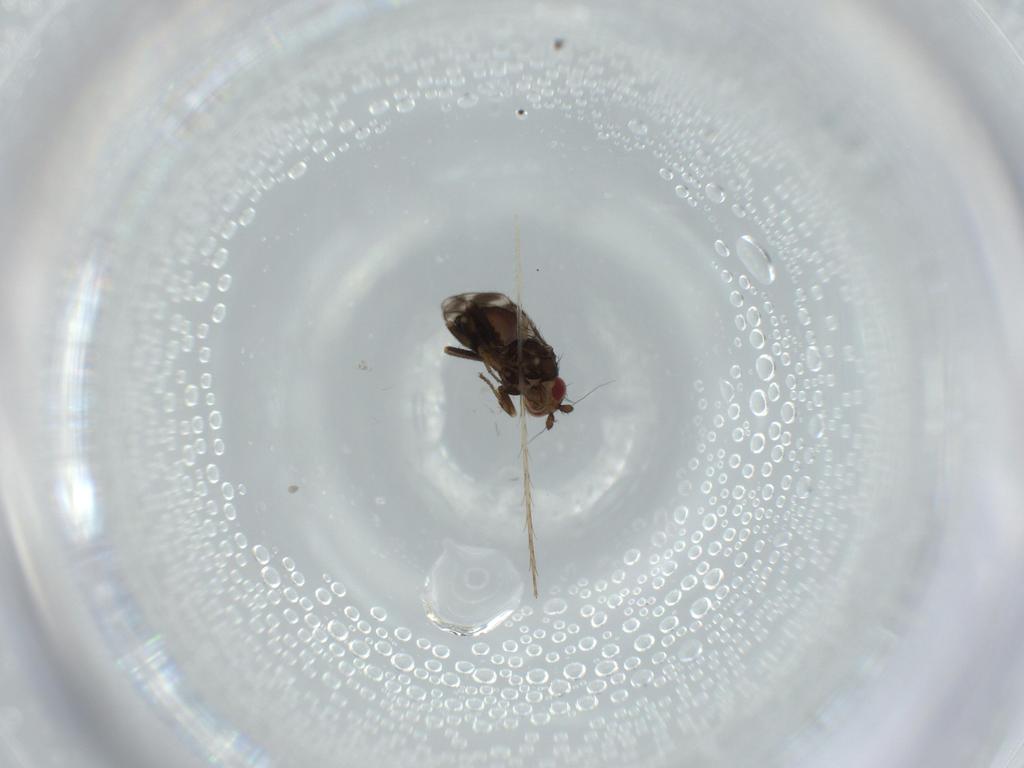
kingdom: Animalia
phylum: Arthropoda
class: Insecta
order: Diptera
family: Sphaeroceridae
